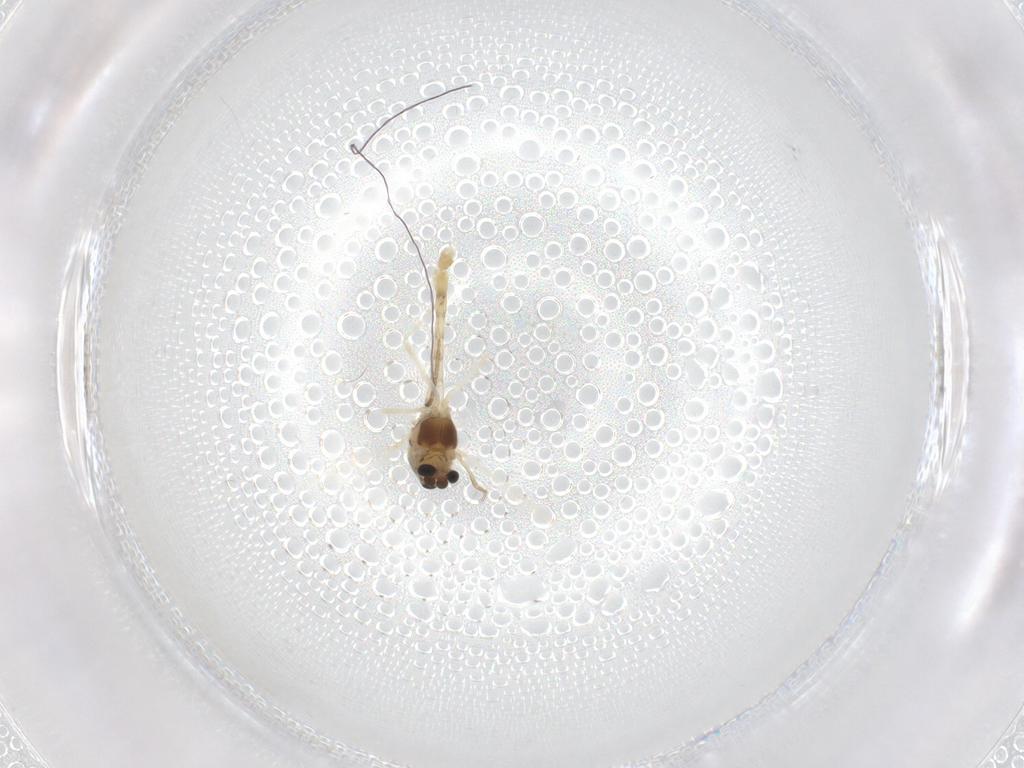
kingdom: Animalia
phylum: Arthropoda
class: Insecta
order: Diptera
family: Chironomidae
